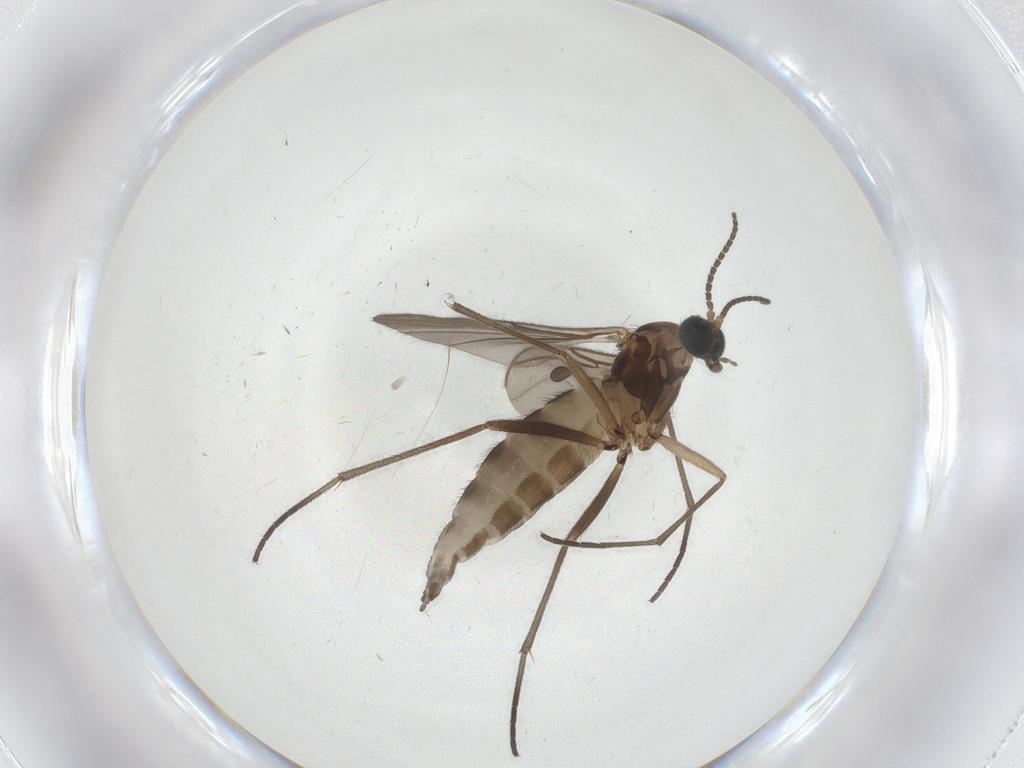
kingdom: Animalia
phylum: Arthropoda
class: Insecta
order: Diptera
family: Sciaridae
